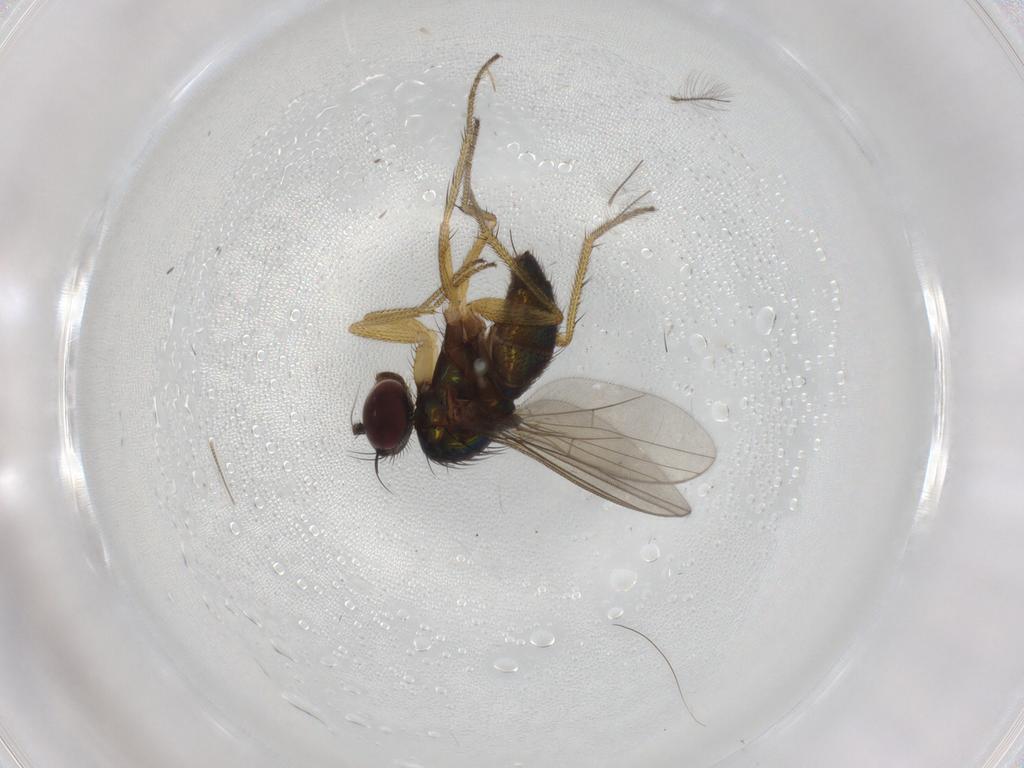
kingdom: Animalia
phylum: Arthropoda
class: Insecta
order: Diptera
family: Dolichopodidae
